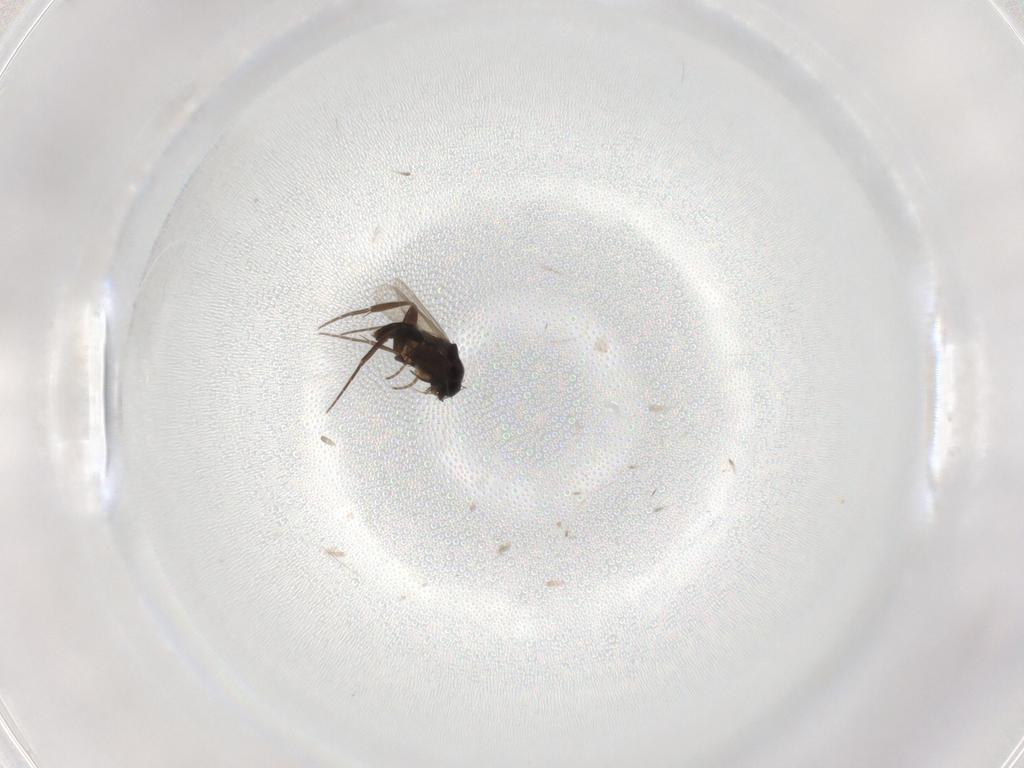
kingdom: Animalia
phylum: Arthropoda
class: Insecta
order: Diptera
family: Phoridae
